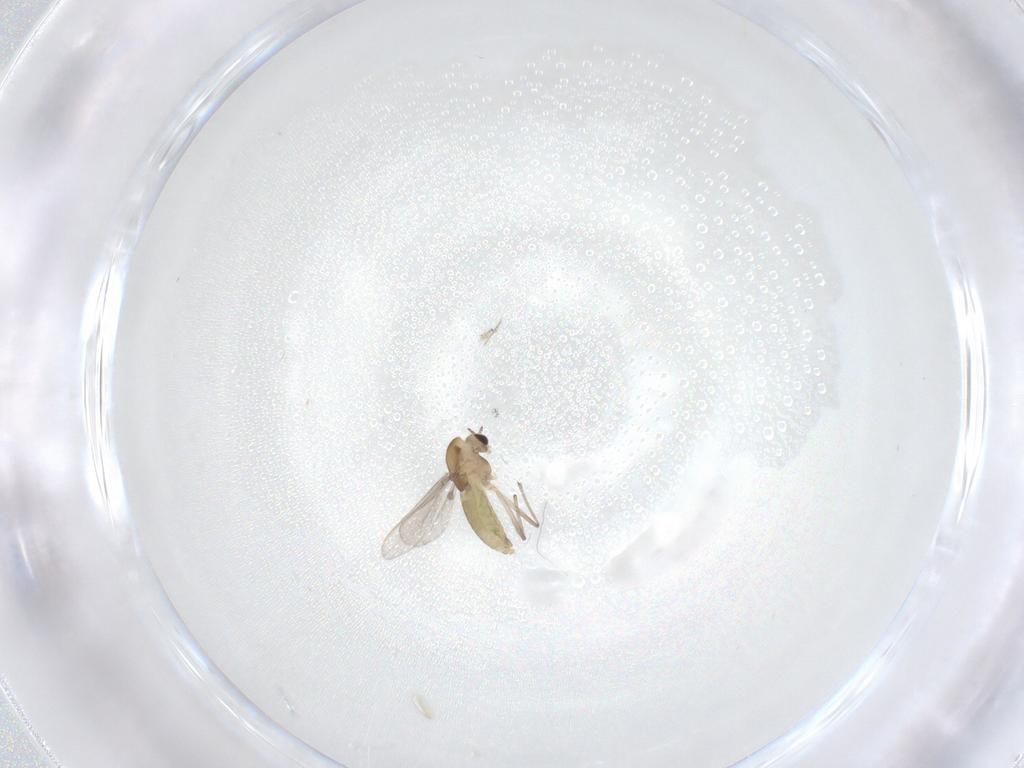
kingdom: Animalia
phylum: Arthropoda
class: Insecta
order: Diptera
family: Chironomidae
